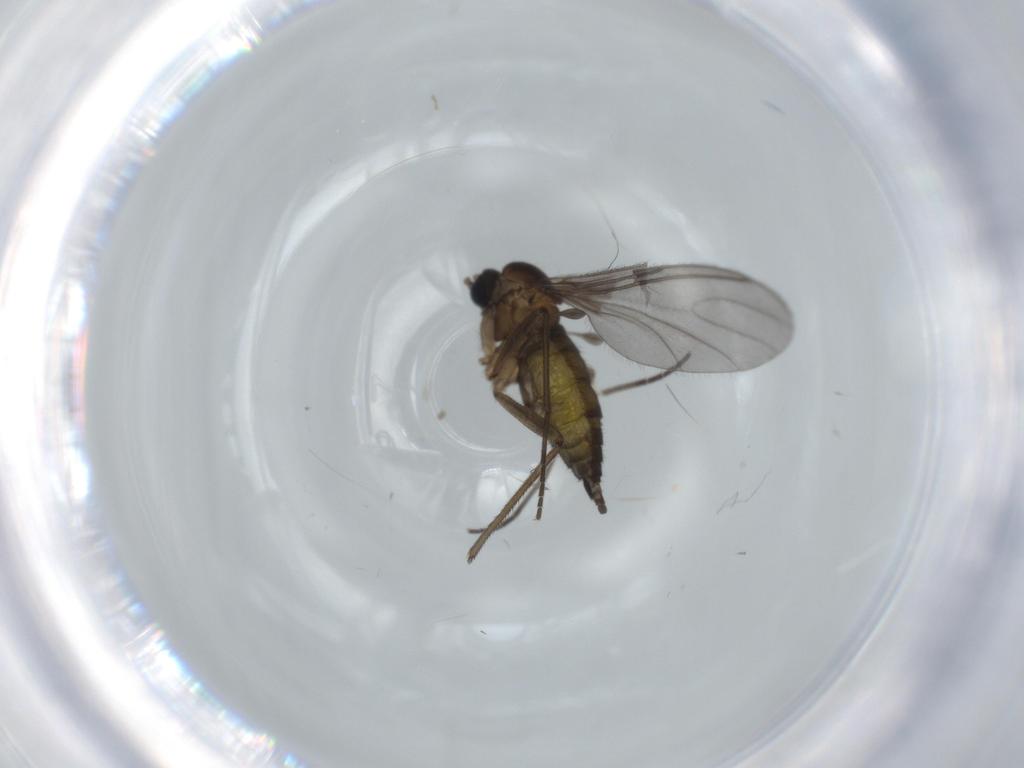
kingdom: Animalia
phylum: Arthropoda
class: Insecta
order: Diptera
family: Sciaridae
